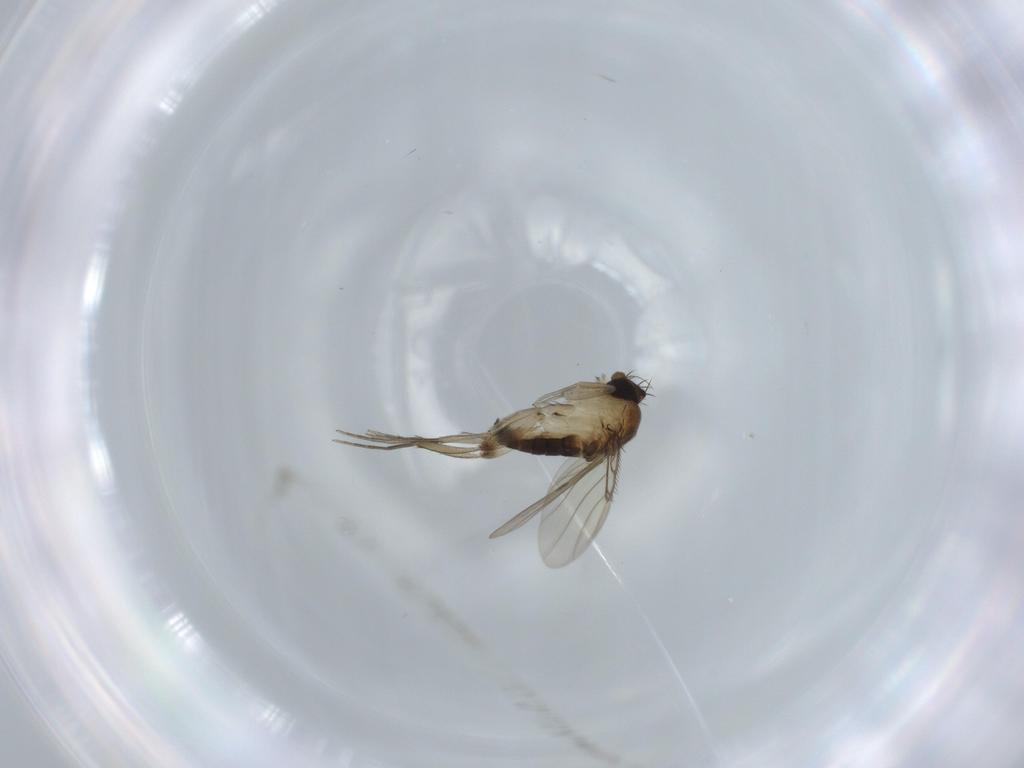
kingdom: Animalia
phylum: Arthropoda
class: Insecta
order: Diptera
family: Phoridae
